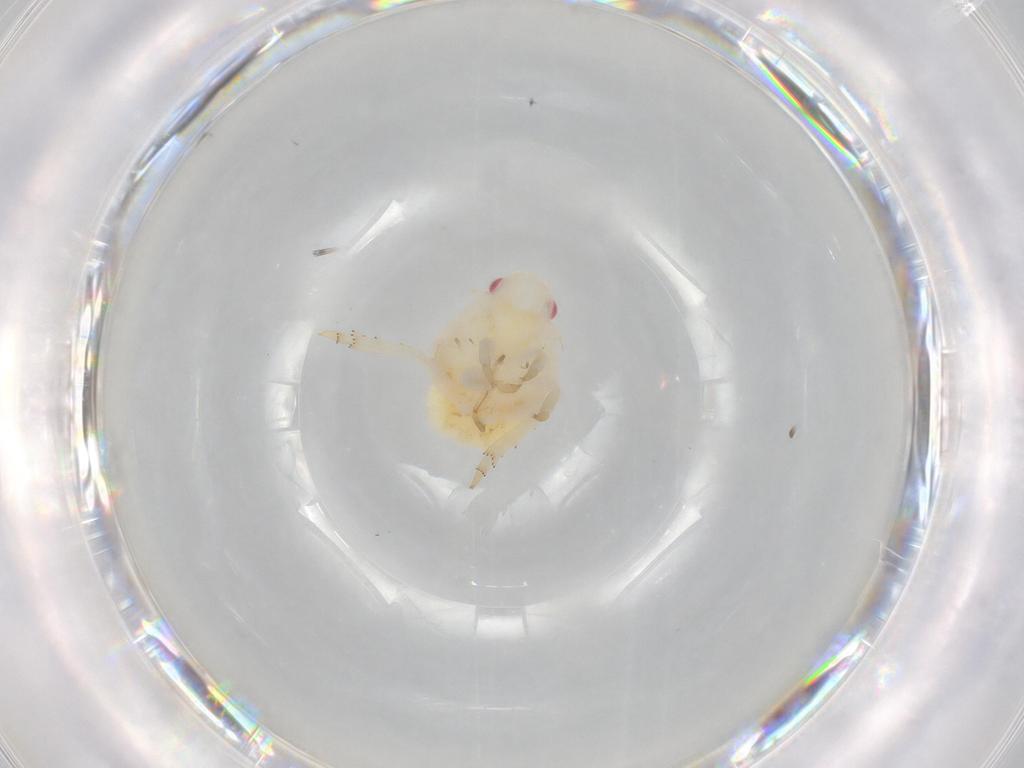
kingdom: Animalia
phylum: Arthropoda
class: Insecta
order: Hemiptera
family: Flatidae
